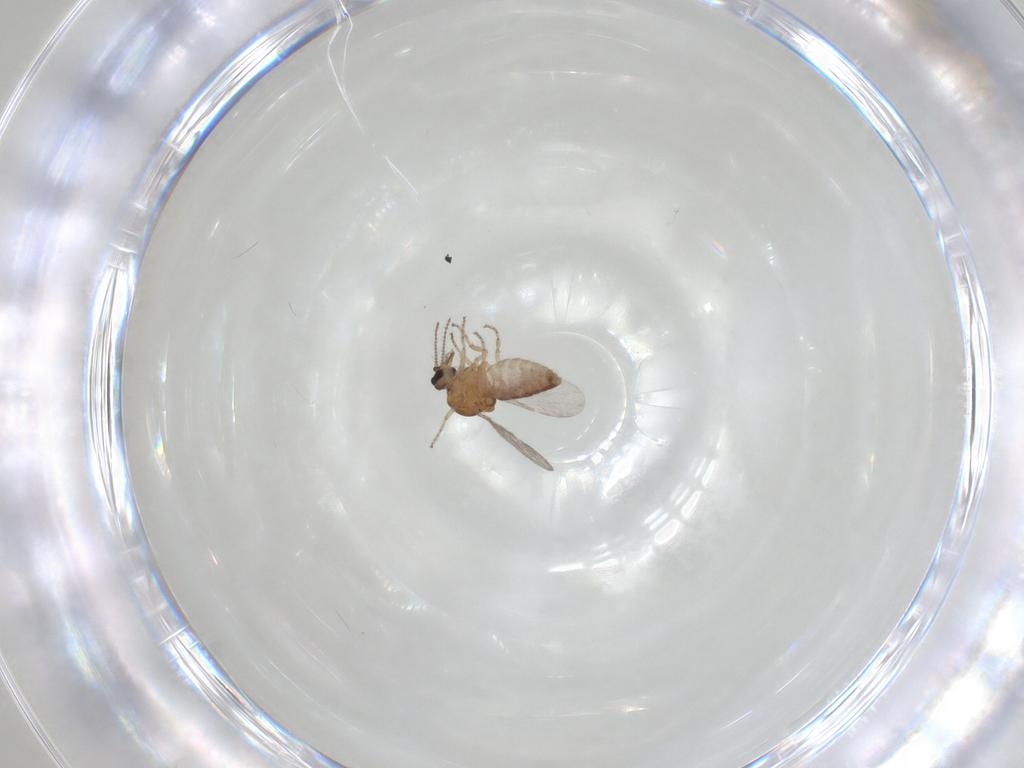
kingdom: Animalia
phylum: Arthropoda
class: Insecta
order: Diptera
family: Ceratopogonidae
